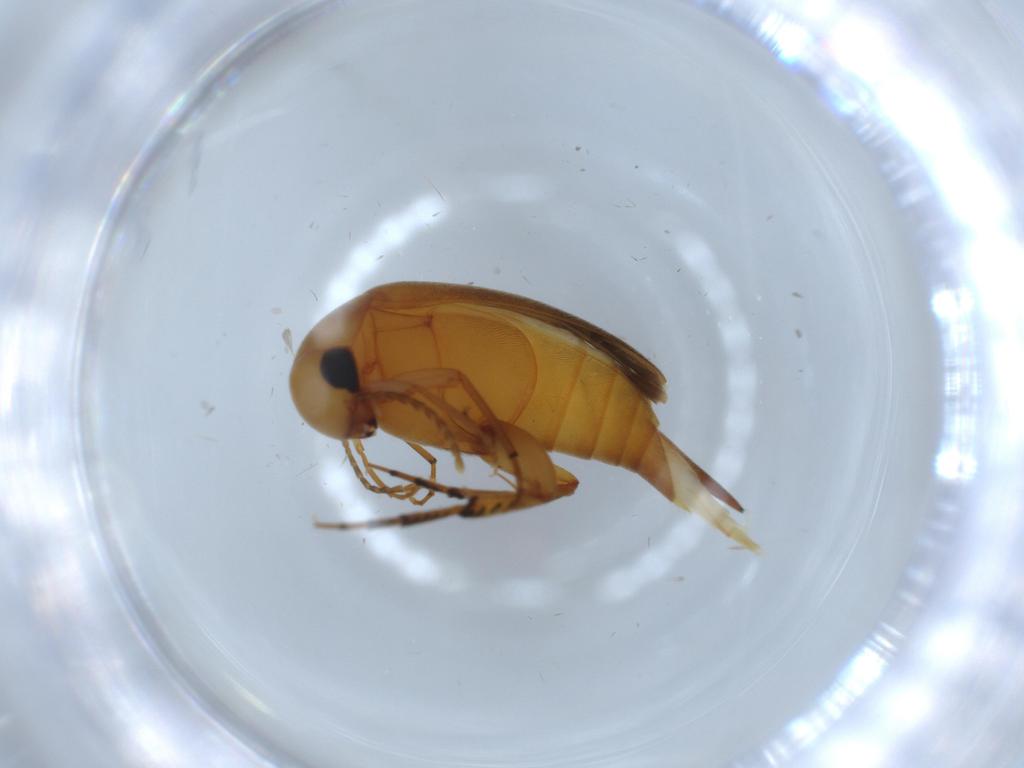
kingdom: Animalia
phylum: Arthropoda
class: Insecta
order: Coleoptera
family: Mordellidae
